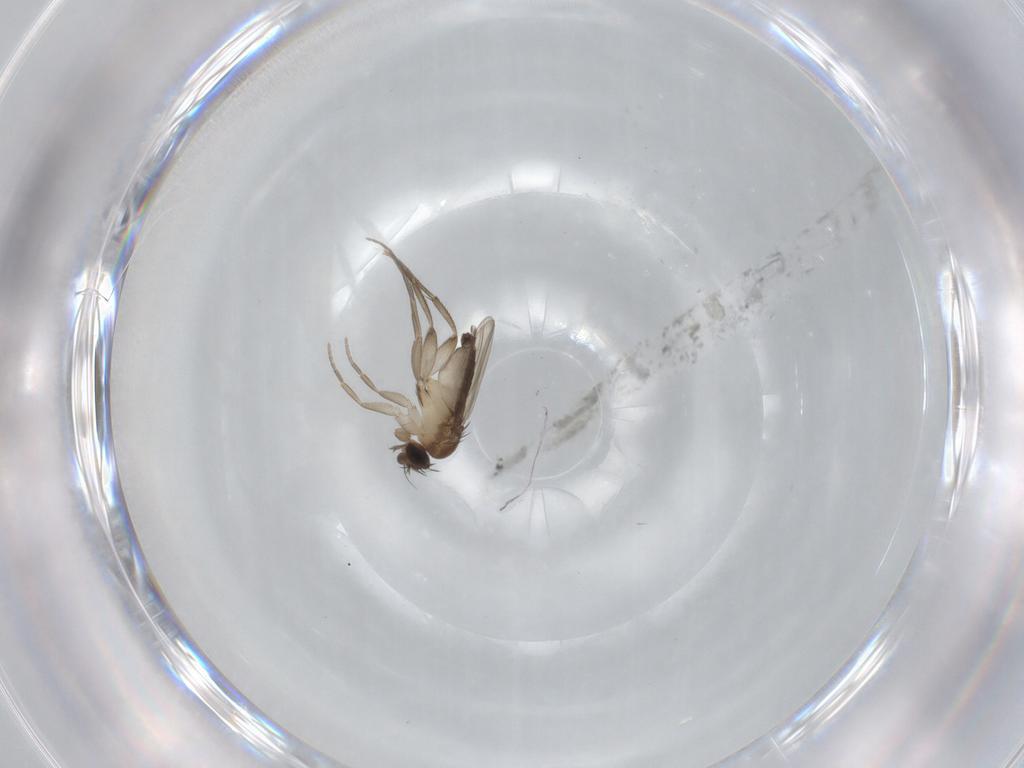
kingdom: Animalia
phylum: Arthropoda
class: Insecta
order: Diptera
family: Phoridae
